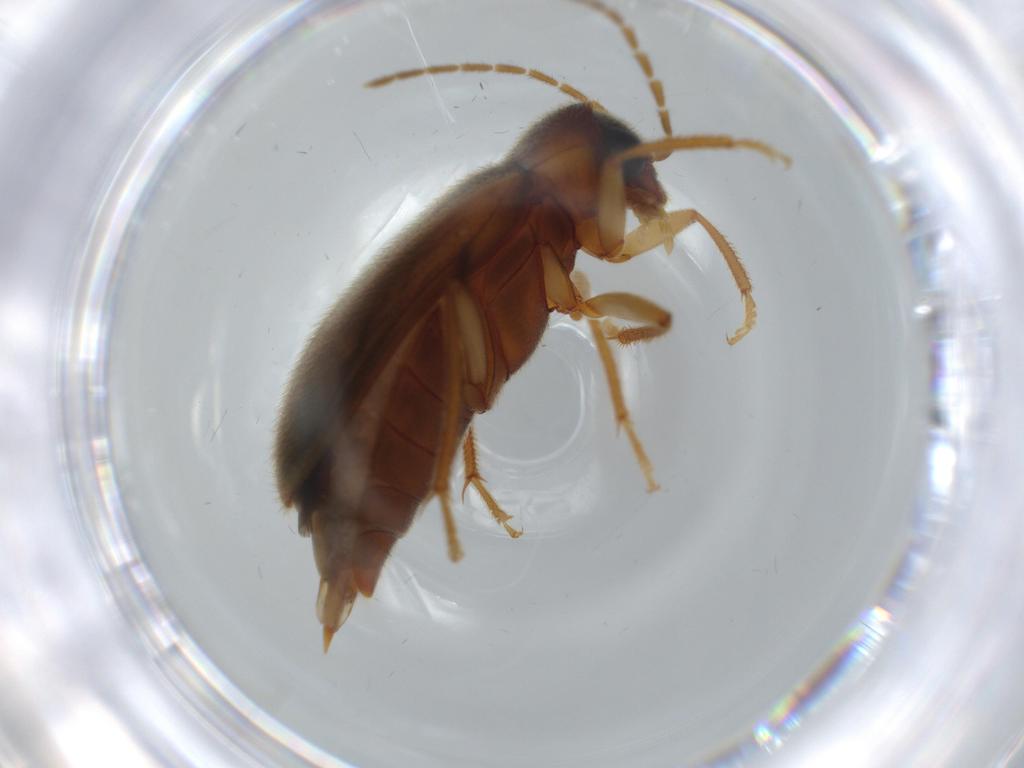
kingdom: Animalia
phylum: Arthropoda
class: Insecta
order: Coleoptera
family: Ptilodactylidae
